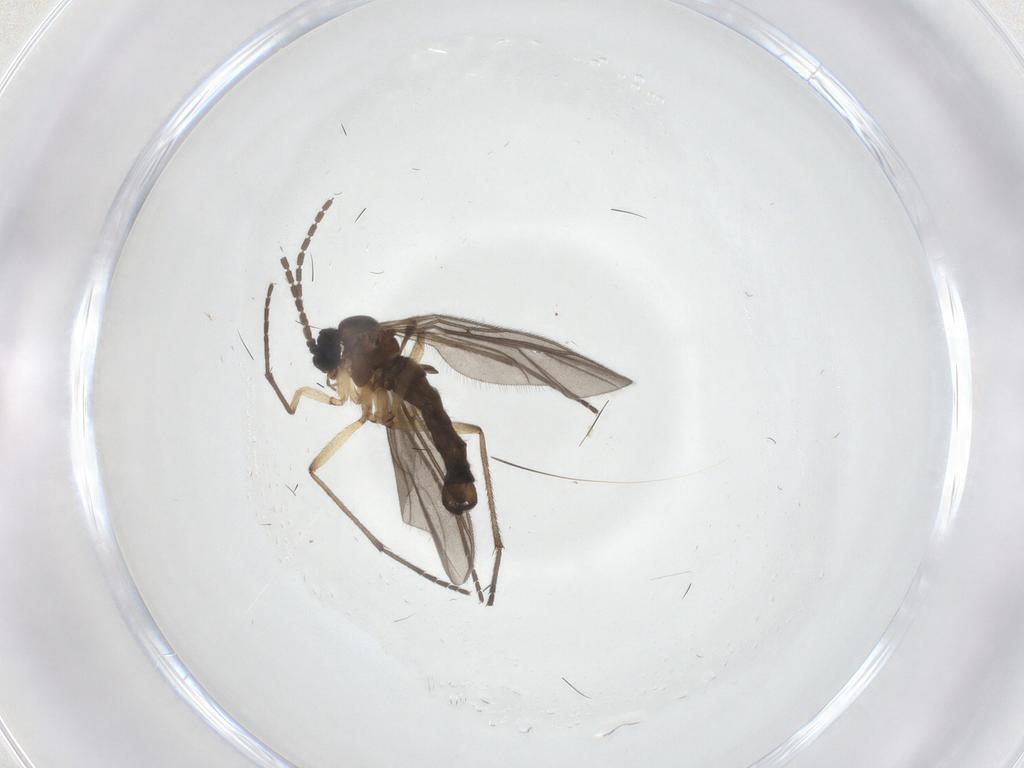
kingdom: Animalia
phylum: Arthropoda
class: Insecta
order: Diptera
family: Sciaridae
